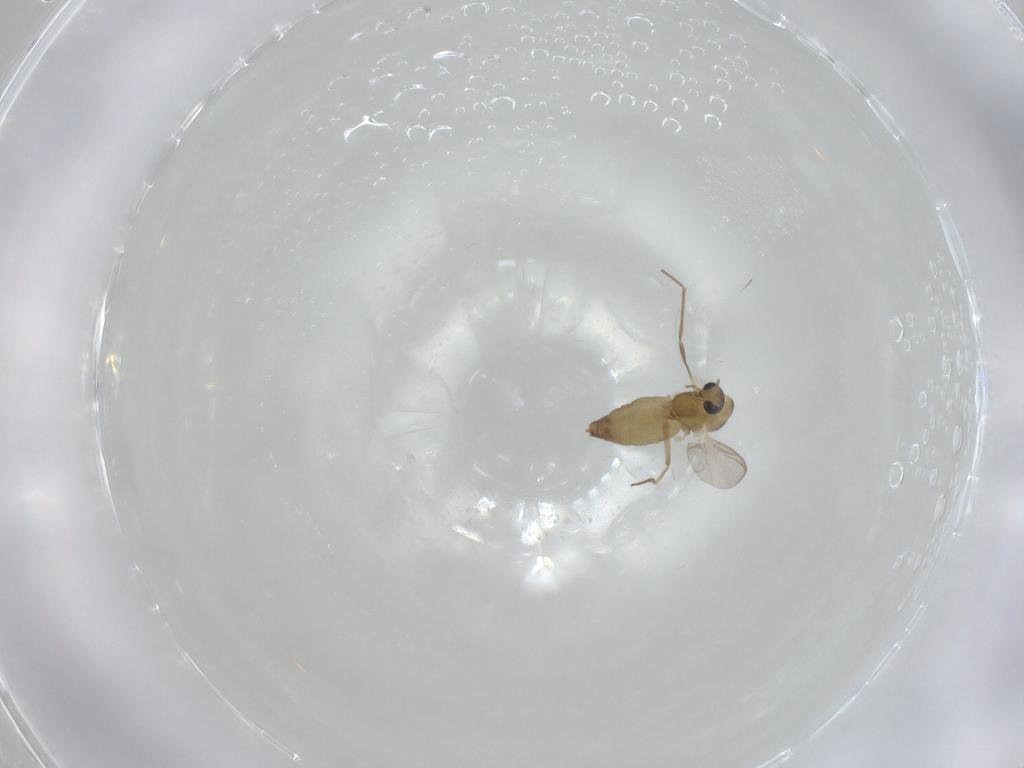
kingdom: Animalia
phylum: Arthropoda
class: Insecta
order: Diptera
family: Chironomidae
